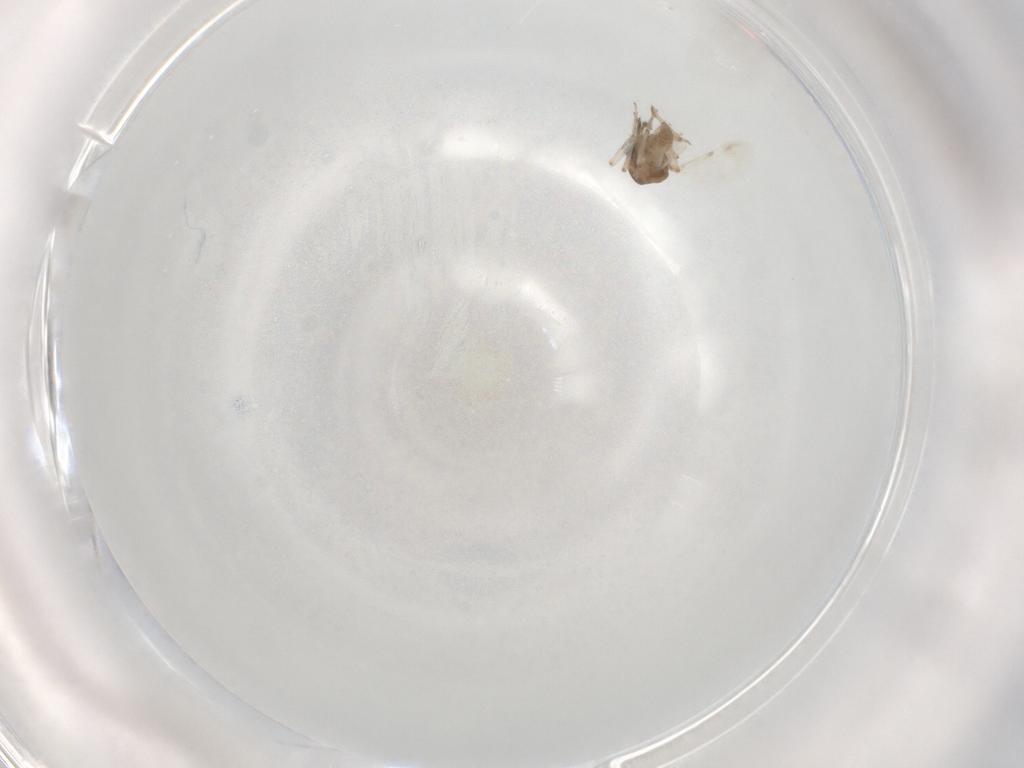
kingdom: Animalia
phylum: Arthropoda
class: Insecta
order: Diptera
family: Ceratopogonidae
